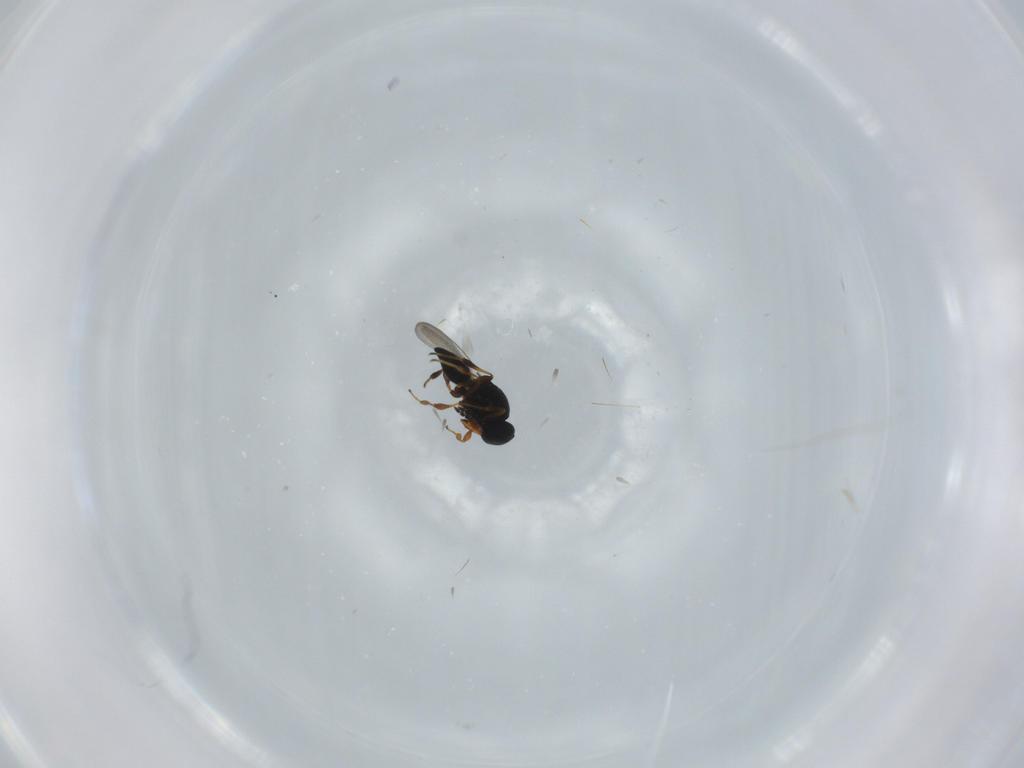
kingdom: Animalia
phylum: Arthropoda
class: Insecta
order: Hymenoptera
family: Platygastridae
